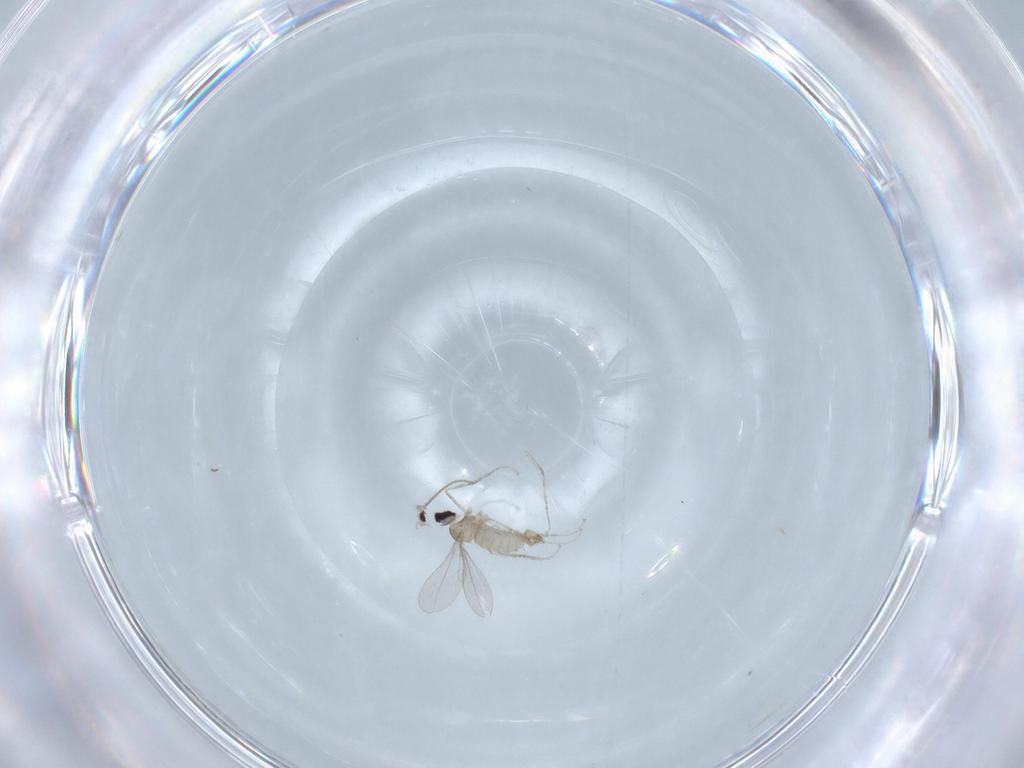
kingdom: Animalia
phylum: Arthropoda
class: Insecta
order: Diptera
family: Cecidomyiidae
